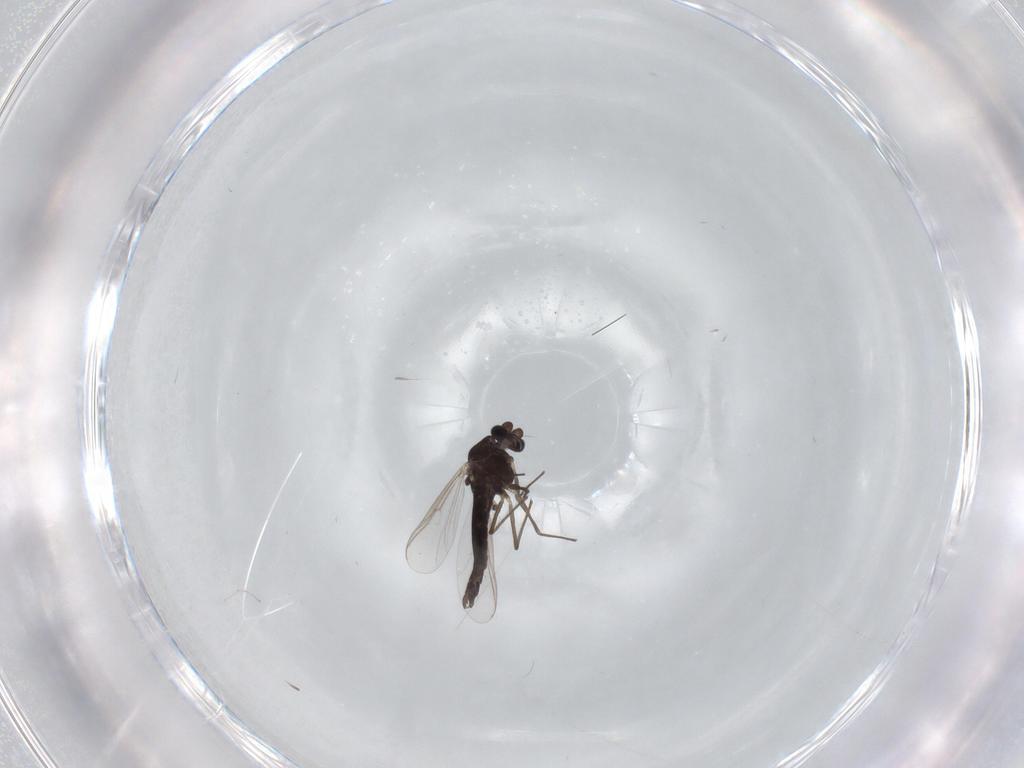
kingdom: Animalia
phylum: Arthropoda
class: Insecta
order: Diptera
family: Chironomidae
